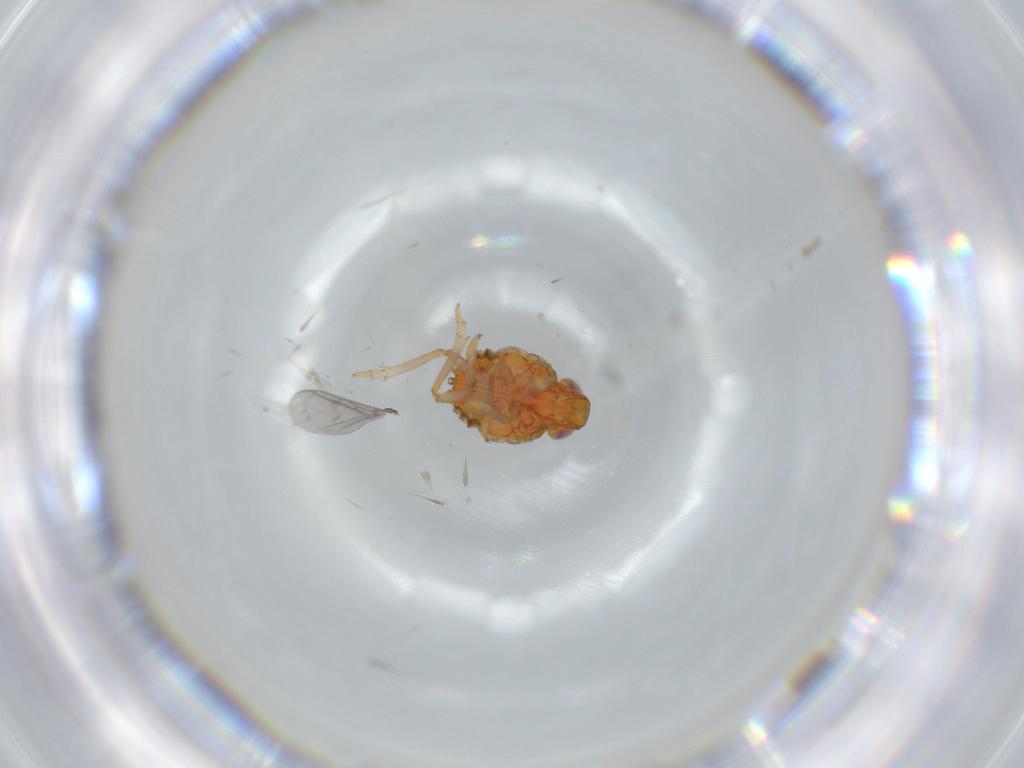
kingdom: Animalia
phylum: Arthropoda
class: Insecta
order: Hemiptera
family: Issidae
